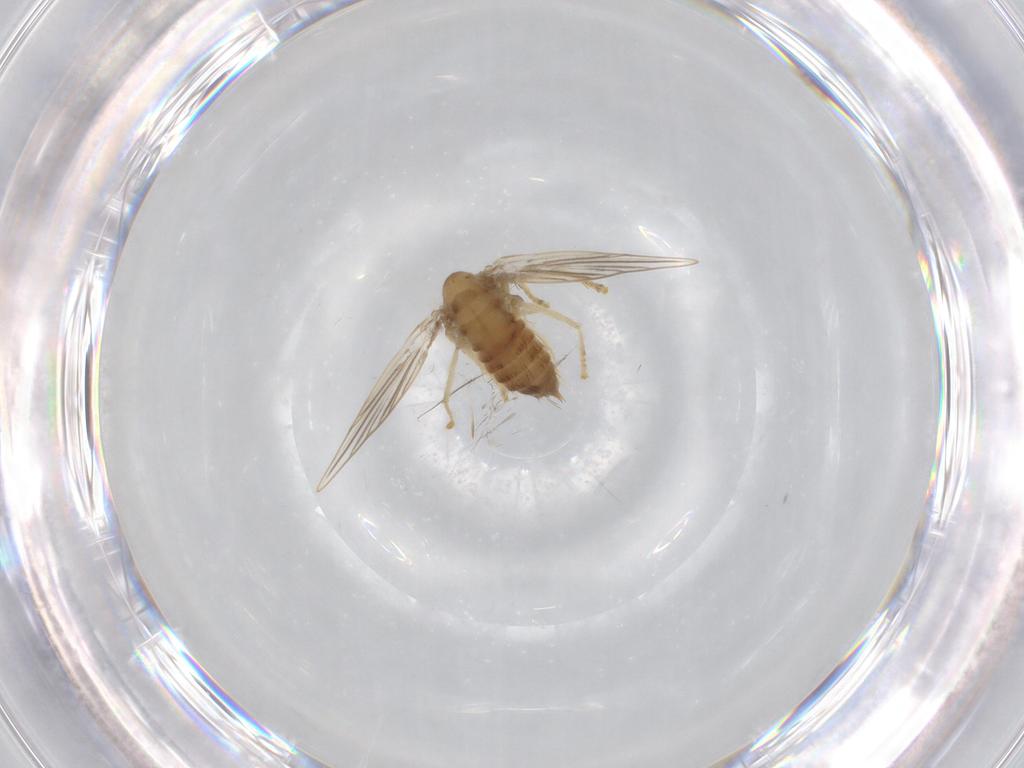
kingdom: Animalia
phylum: Arthropoda
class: Insecta
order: Diptera
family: Psychodidae
